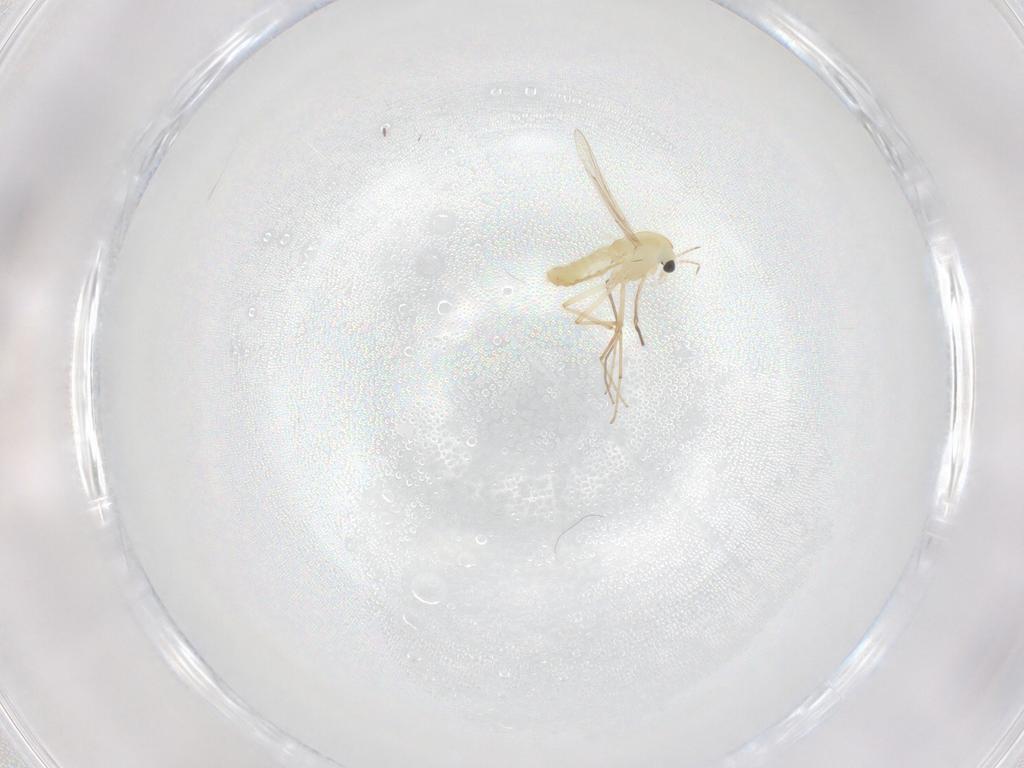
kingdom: Animalia
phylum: Arthropoda
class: Insecta
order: Diptera
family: Chironomidae
